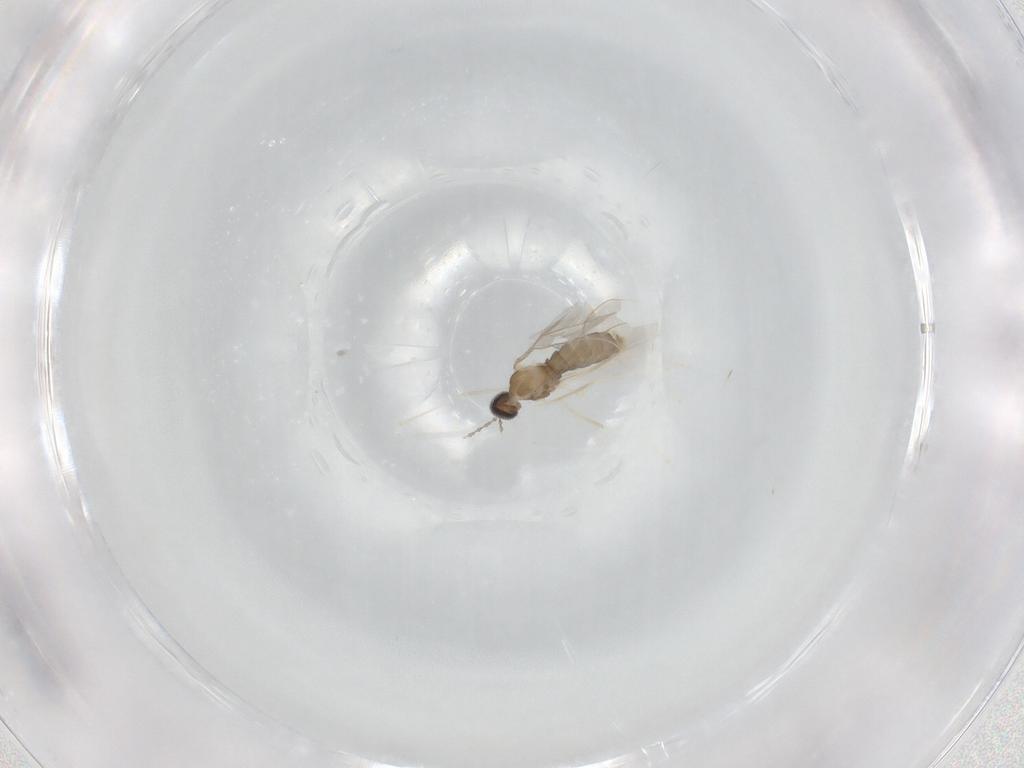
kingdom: Animalia
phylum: Arthropoda
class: Insecta
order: Diptera
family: Cecidomyiidae
